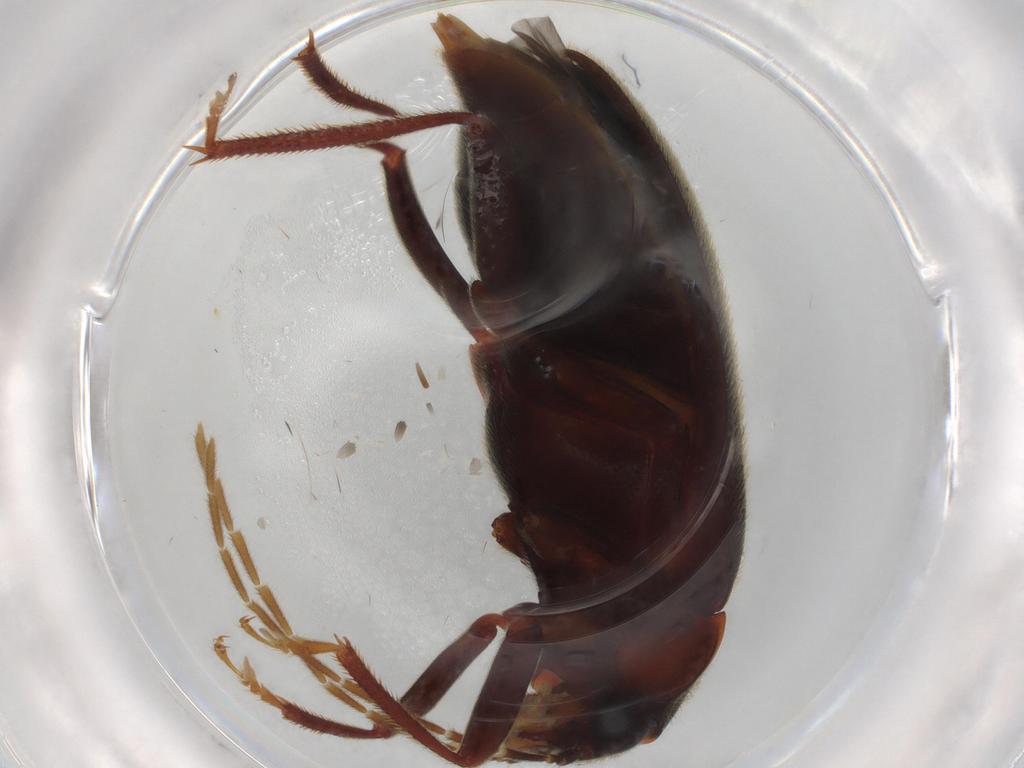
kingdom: Animalia
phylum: Arthropoda
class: Insecta
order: Coleoptera
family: Ptilodactylidae
